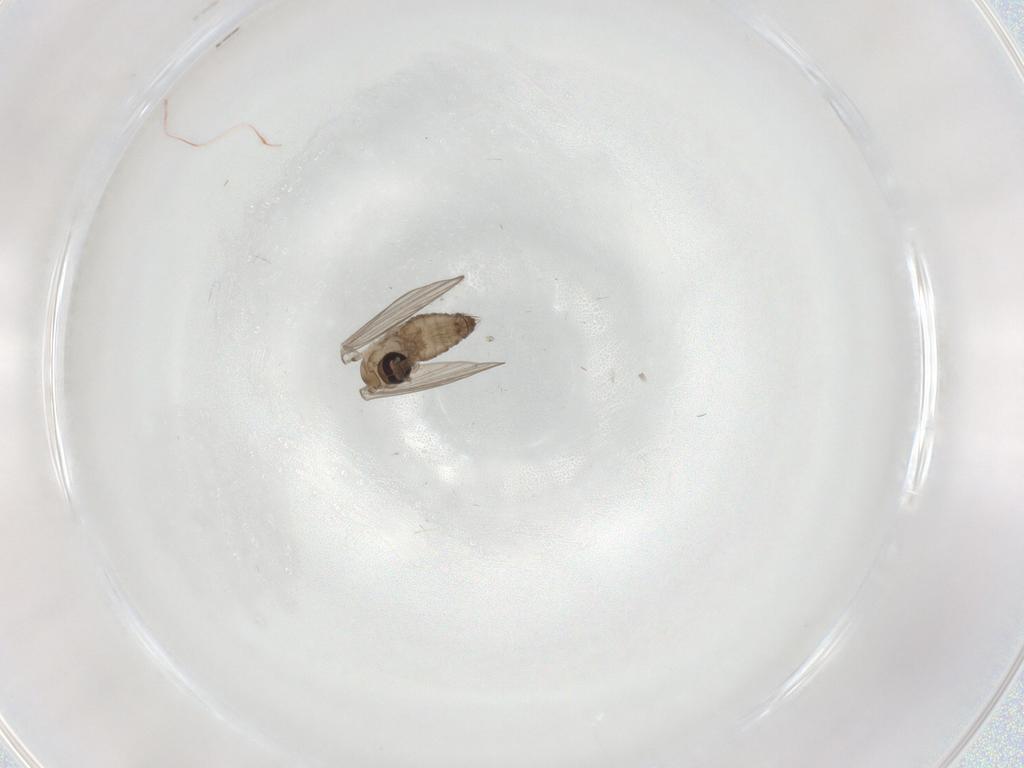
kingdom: Animalia
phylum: Arthropoda
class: Insecta
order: Diptera
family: Psychodidae
